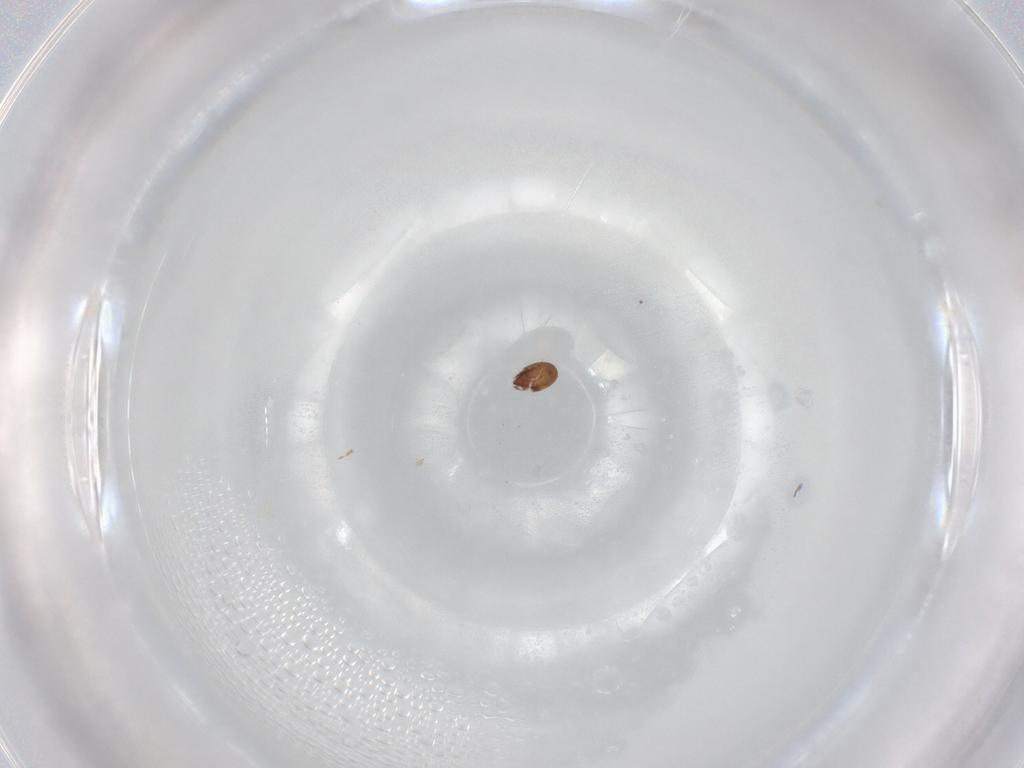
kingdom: Animalia
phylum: Arthropoda
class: Arachnida
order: Sarcoptiformes
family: Oripodidae
